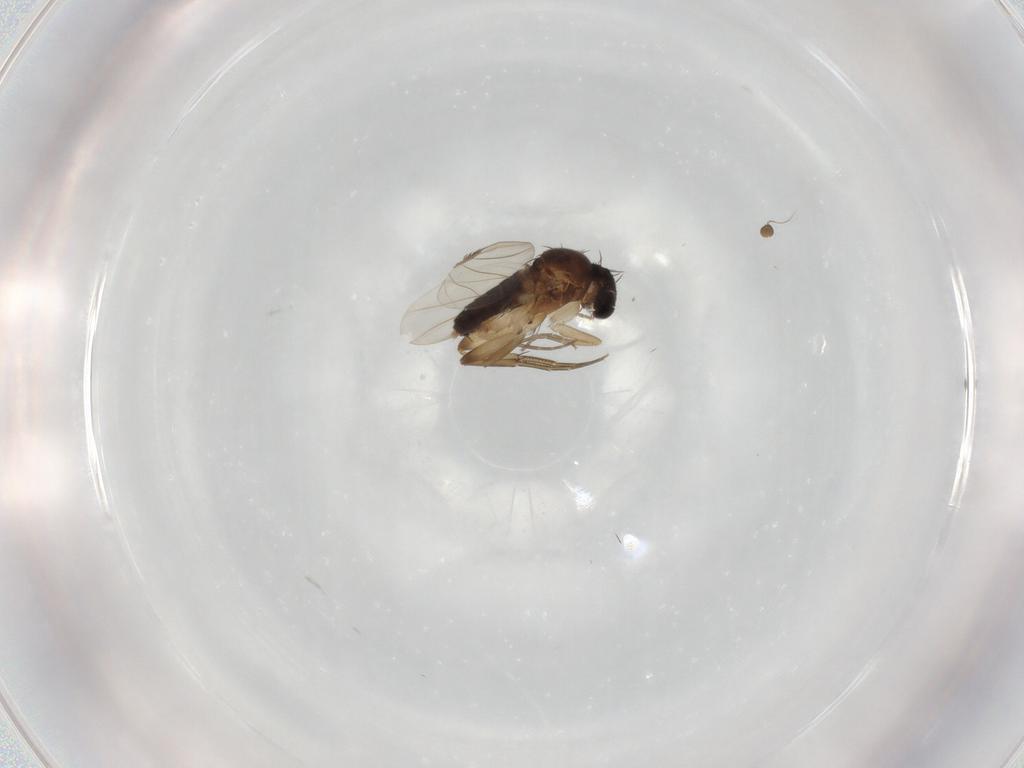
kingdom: Animalia
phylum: Arthropoda
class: Insecta
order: Diptera
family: Phoridae
